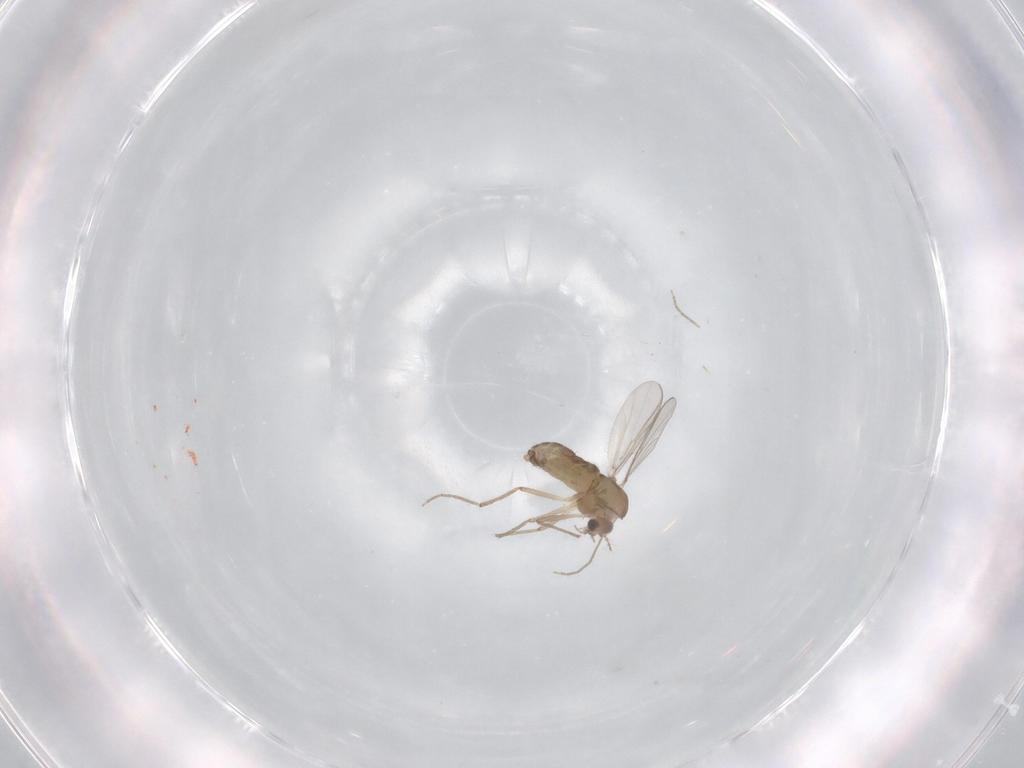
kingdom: Animalia
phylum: Arthropoda
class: Insecta
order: Diptera
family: Chironomidae
